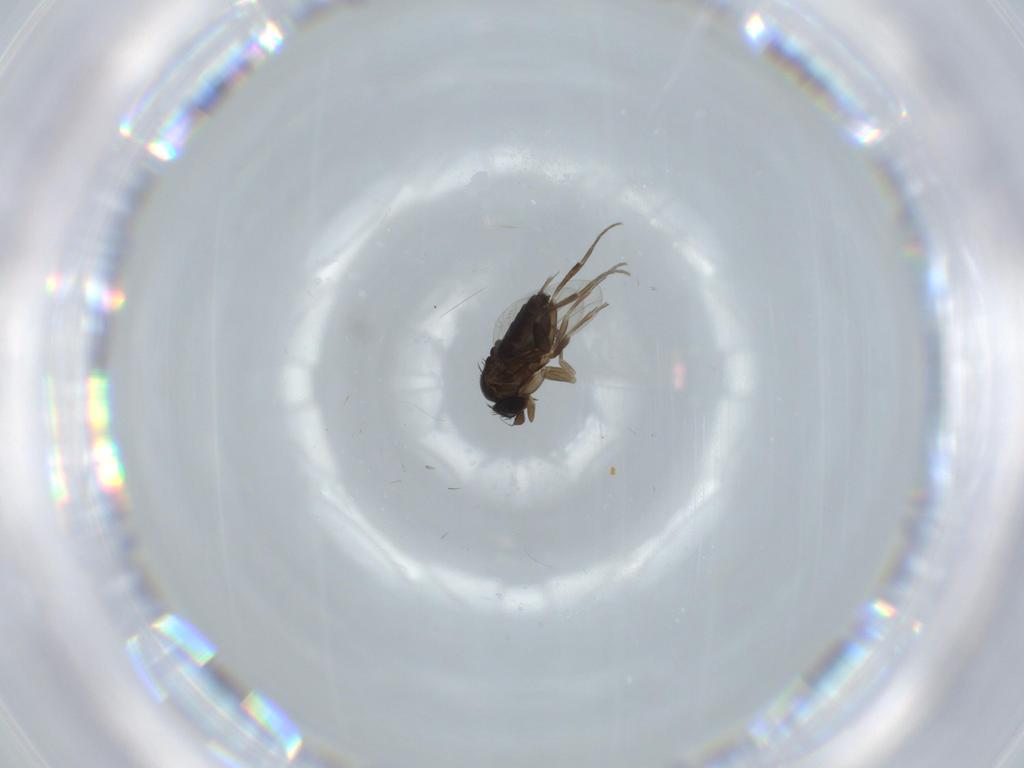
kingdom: Animalia
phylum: Arthropoda
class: Insecta
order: Diptera
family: Phoridae
